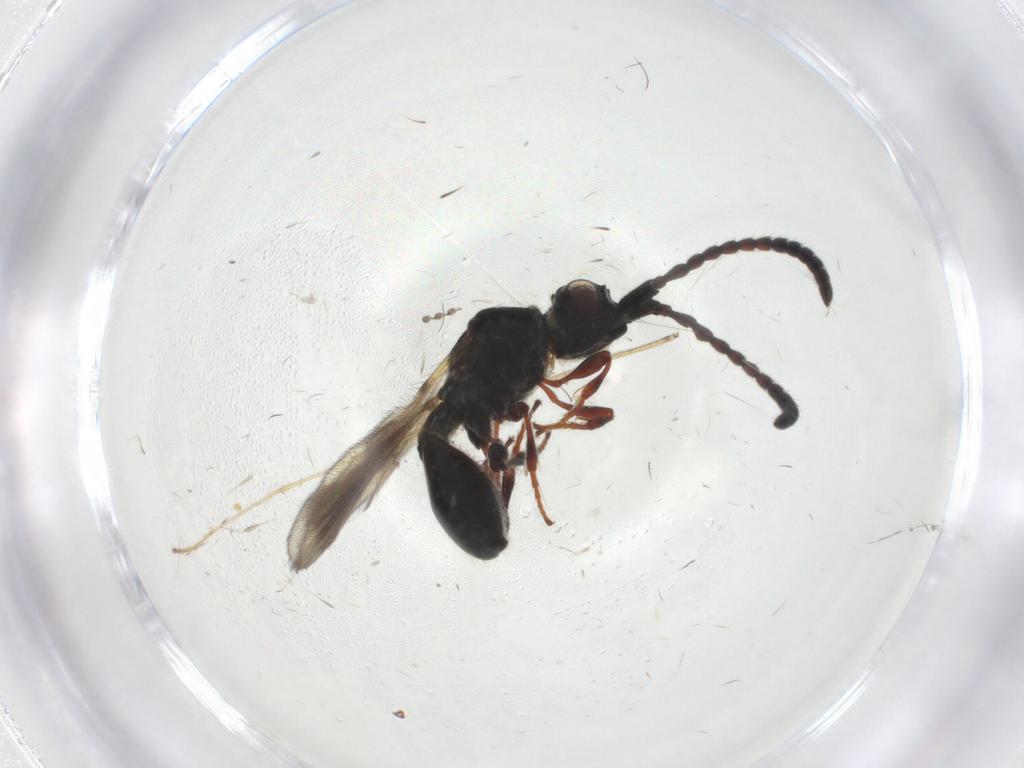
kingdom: Animalia
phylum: Arthropoda
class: Insecta
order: Hymenoptera
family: Diapriidae
